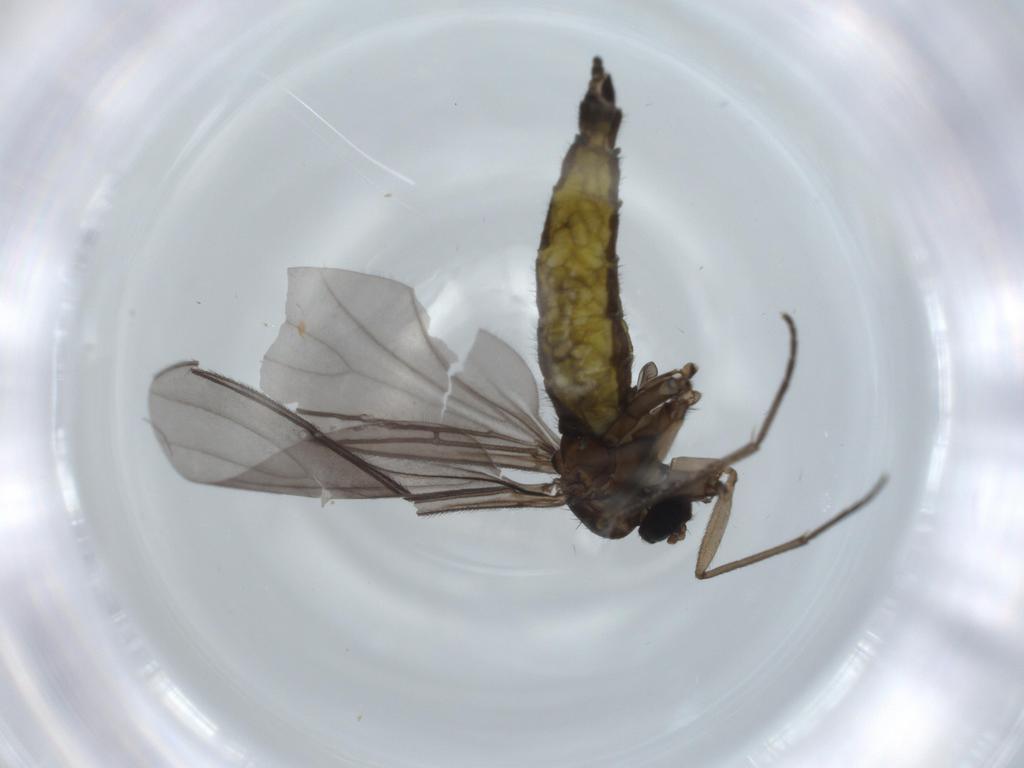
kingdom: Animalia
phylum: Arthropoda
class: Insecta
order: Diptera
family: Sciaridae
